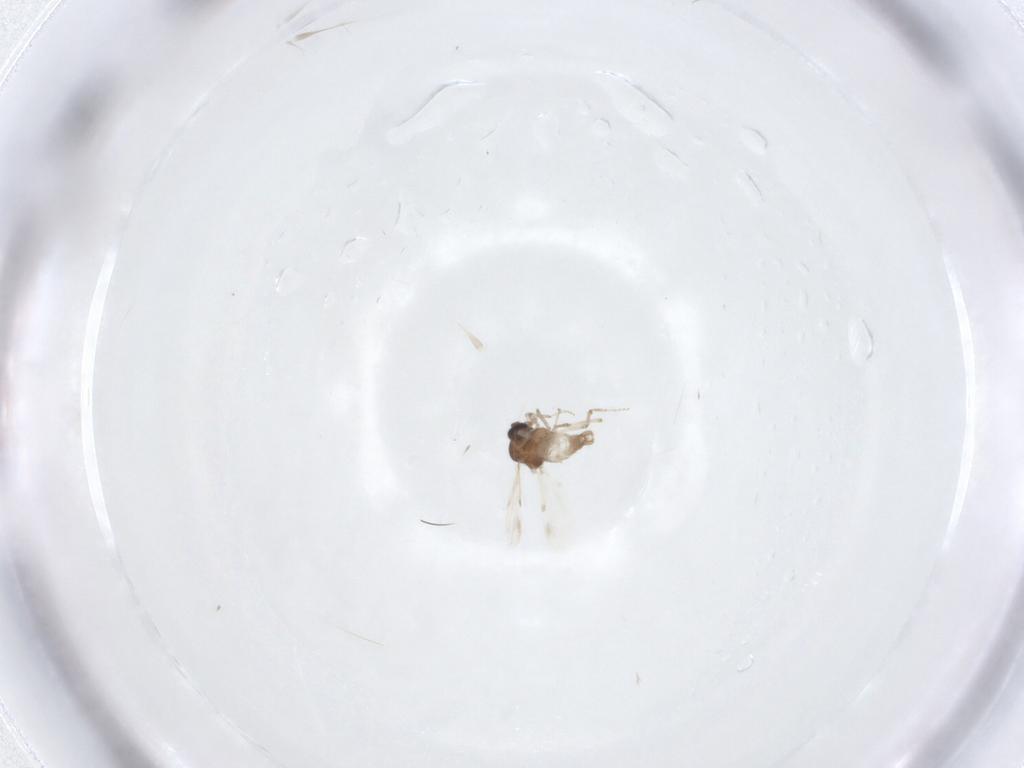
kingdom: Animalia
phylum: Arthropoda
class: Insecta
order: Diptera
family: Ceratopogonidae
